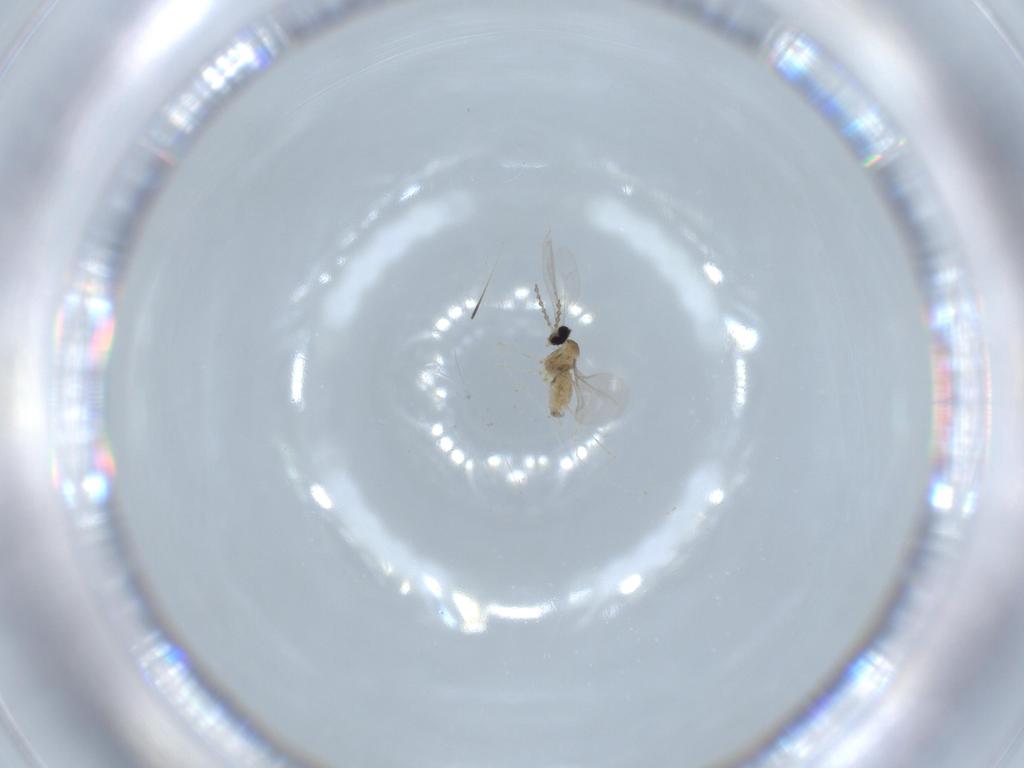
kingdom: Animalia
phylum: Arthropoda
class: Insecta
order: Diptera
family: Cecidomyiidae
